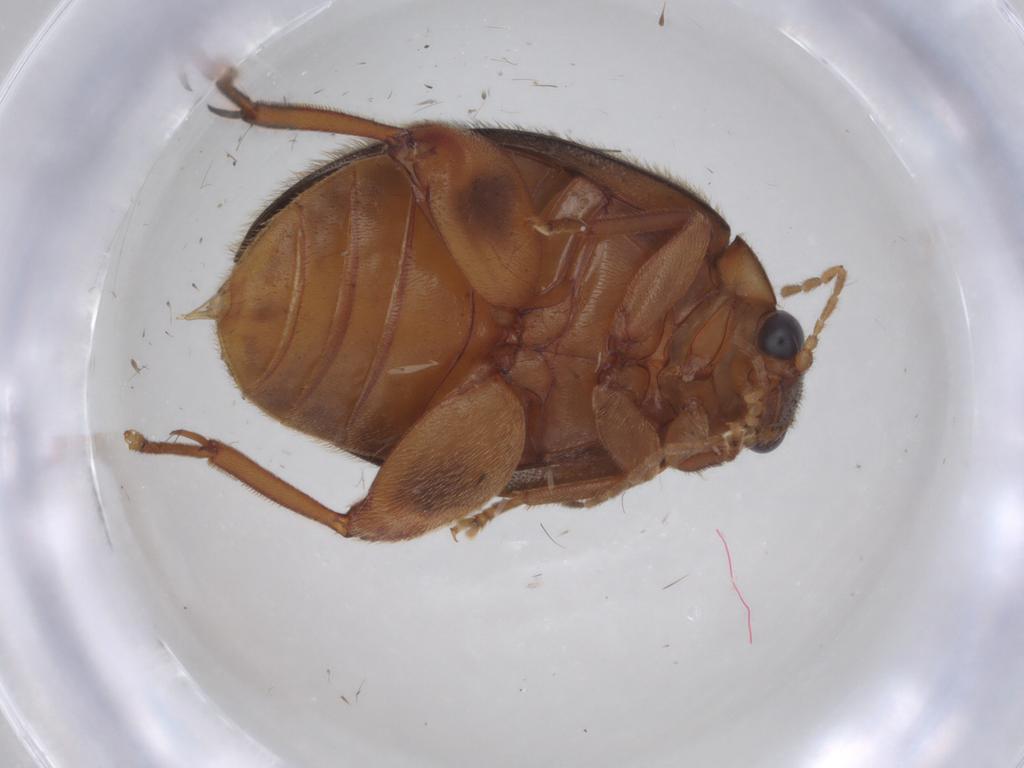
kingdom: Animalia
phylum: Arthropoda
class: Insecta
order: Coleoptera
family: Scirtidae
